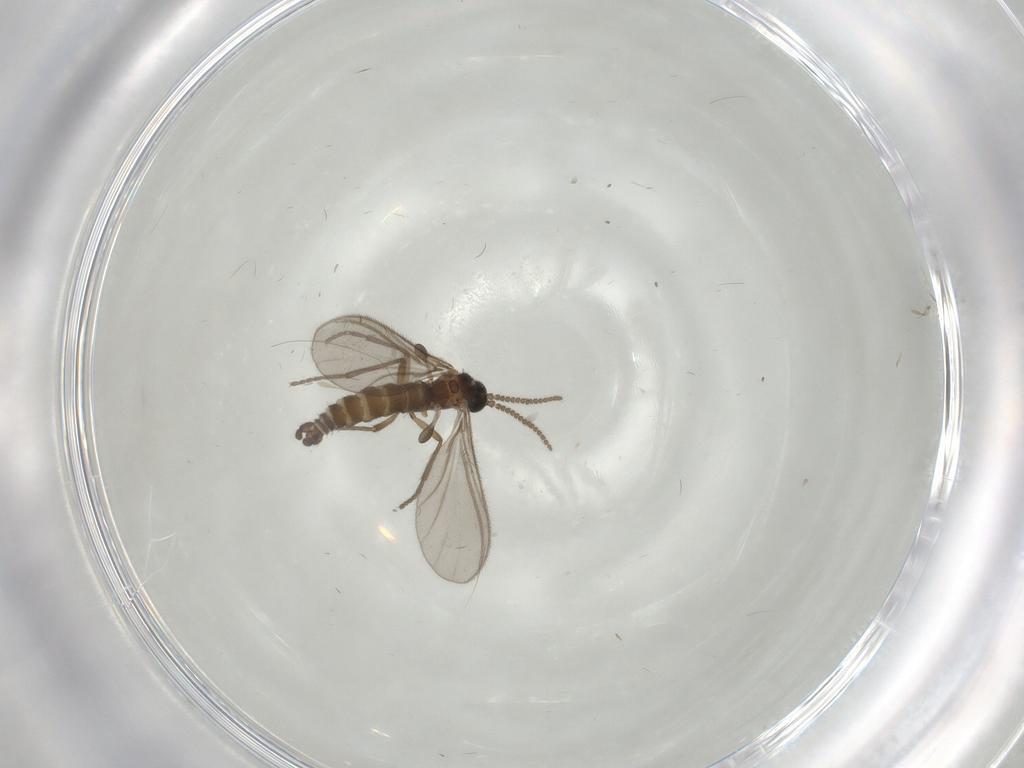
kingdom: Animalia
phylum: Arthropoda
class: Insecta
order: Diptera
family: Sciaridae
